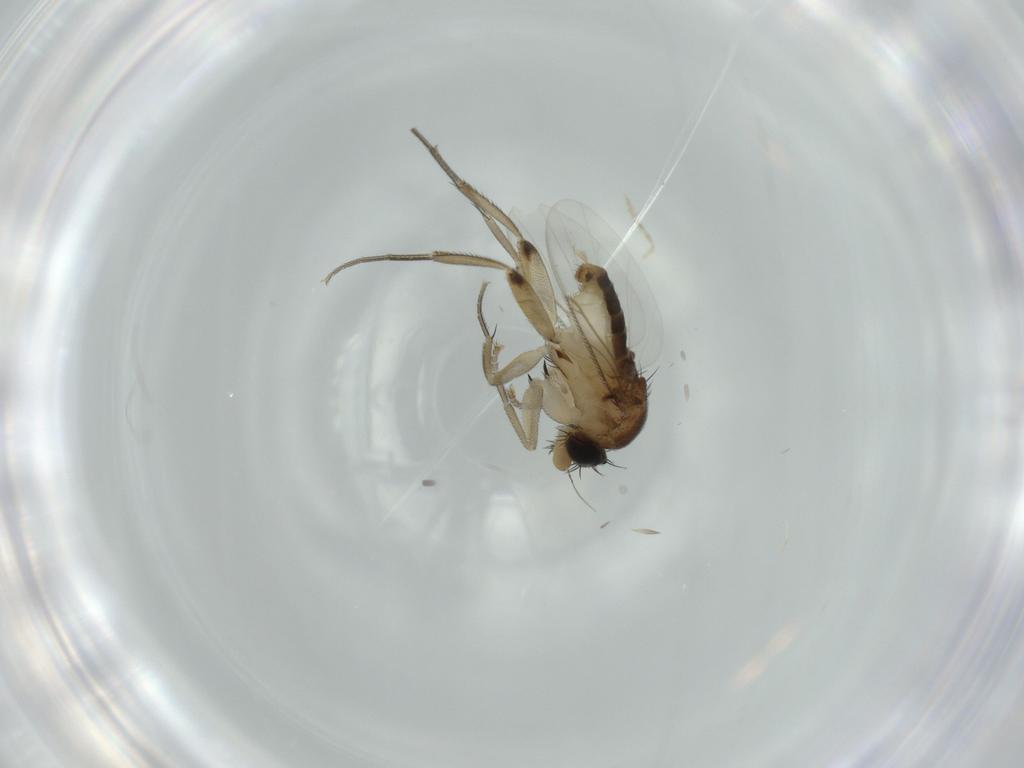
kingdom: Animalia
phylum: Arthropoda
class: Insecta
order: Diptera
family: Phoridae
